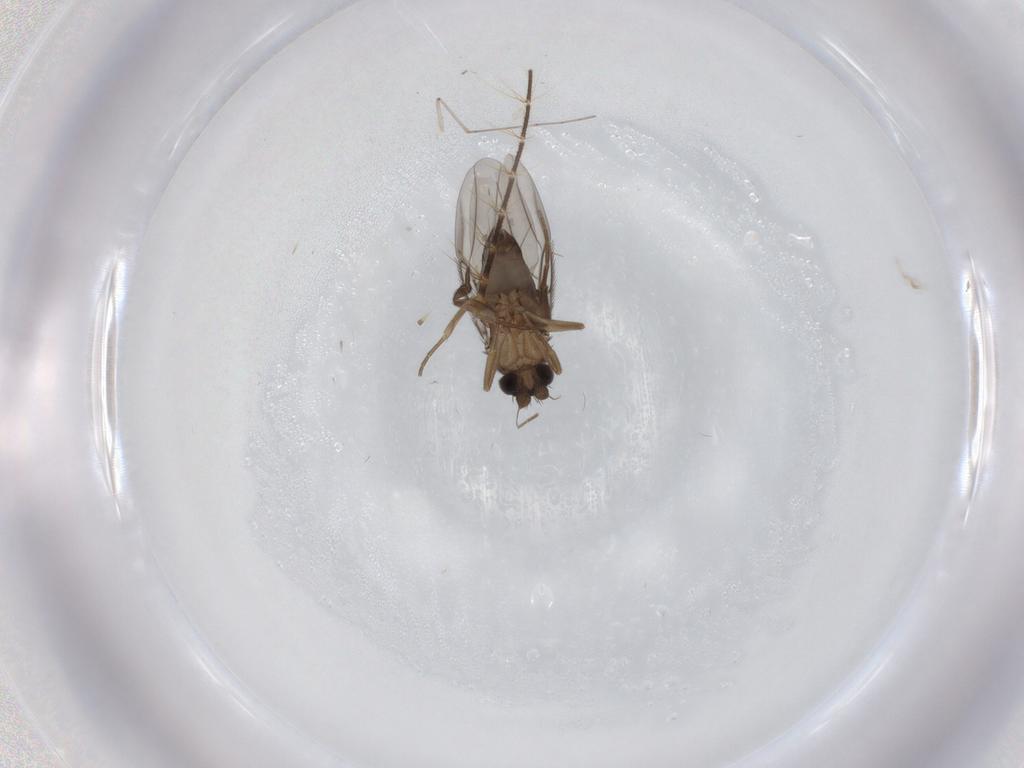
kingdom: Animalia
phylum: Arthropoda
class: Insecta
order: Diptera
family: Phoridae
